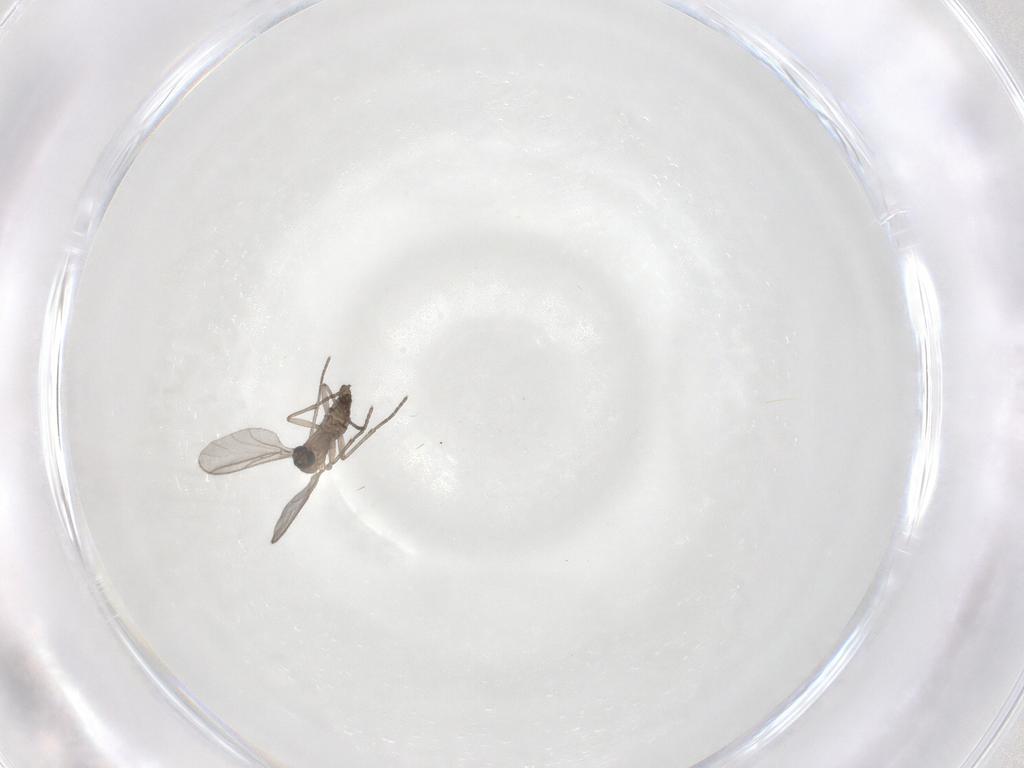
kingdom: Animalia
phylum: Arthropoda
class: Insecta
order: Diptera
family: Sciaridae
